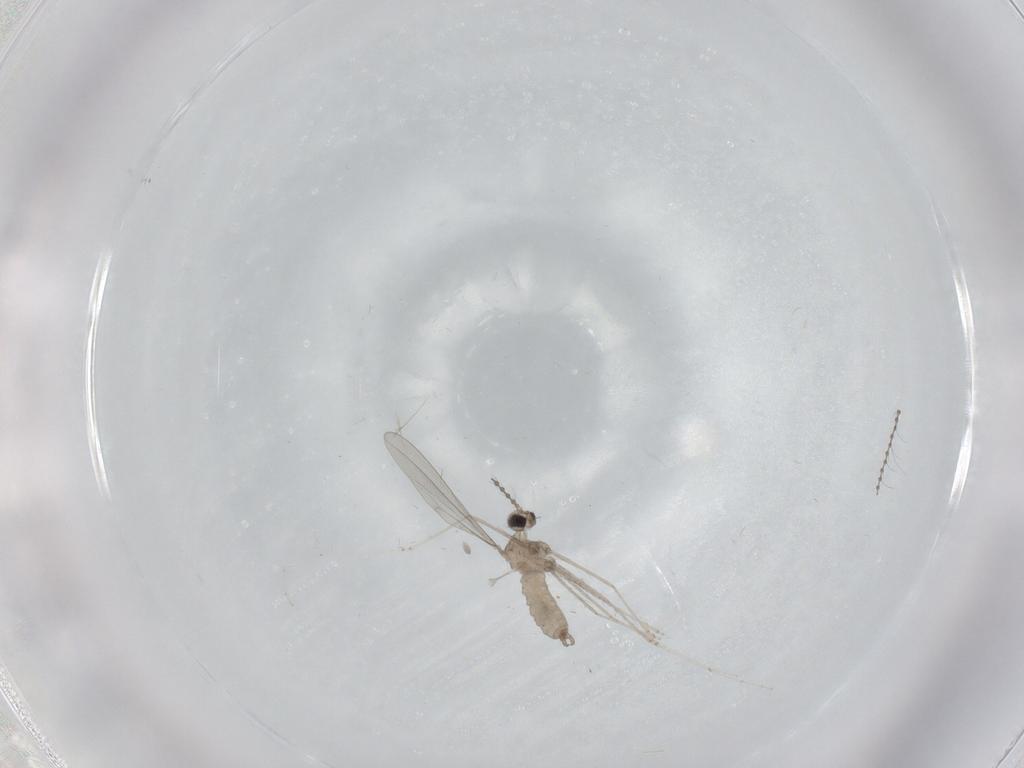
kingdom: Animalia
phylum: Arthropoda
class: Insecta
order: Diptera
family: Cecidomyiidae
